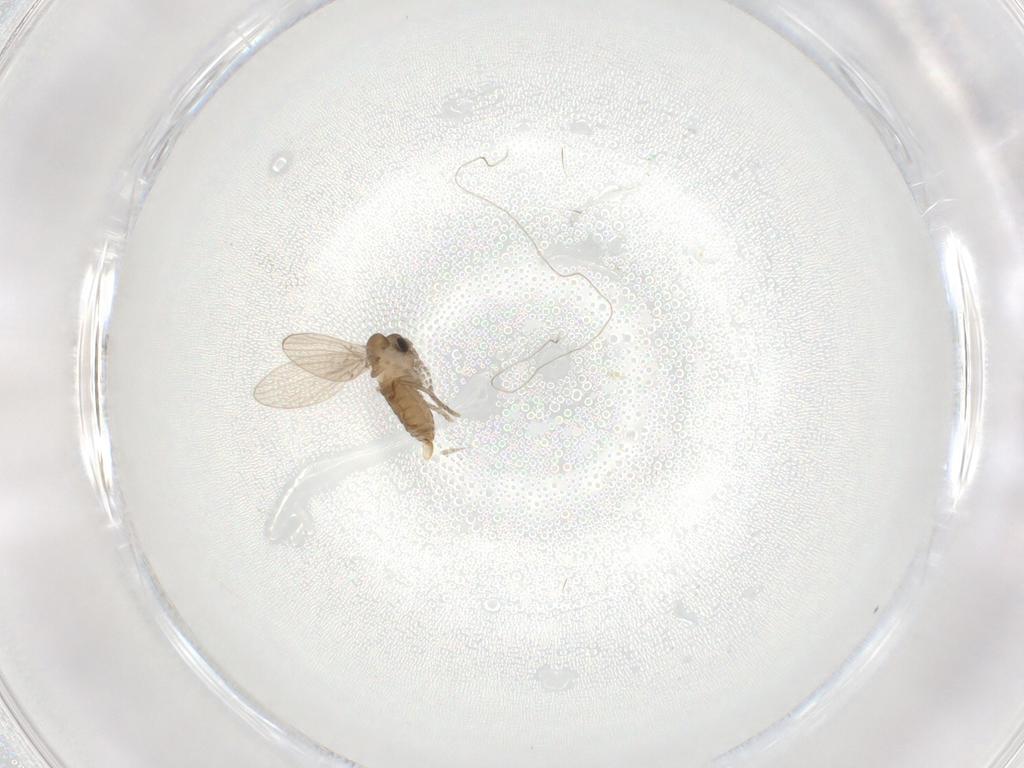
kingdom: Animalia
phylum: Arthropoda
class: Insecta
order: Diptera
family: Psychodidae
